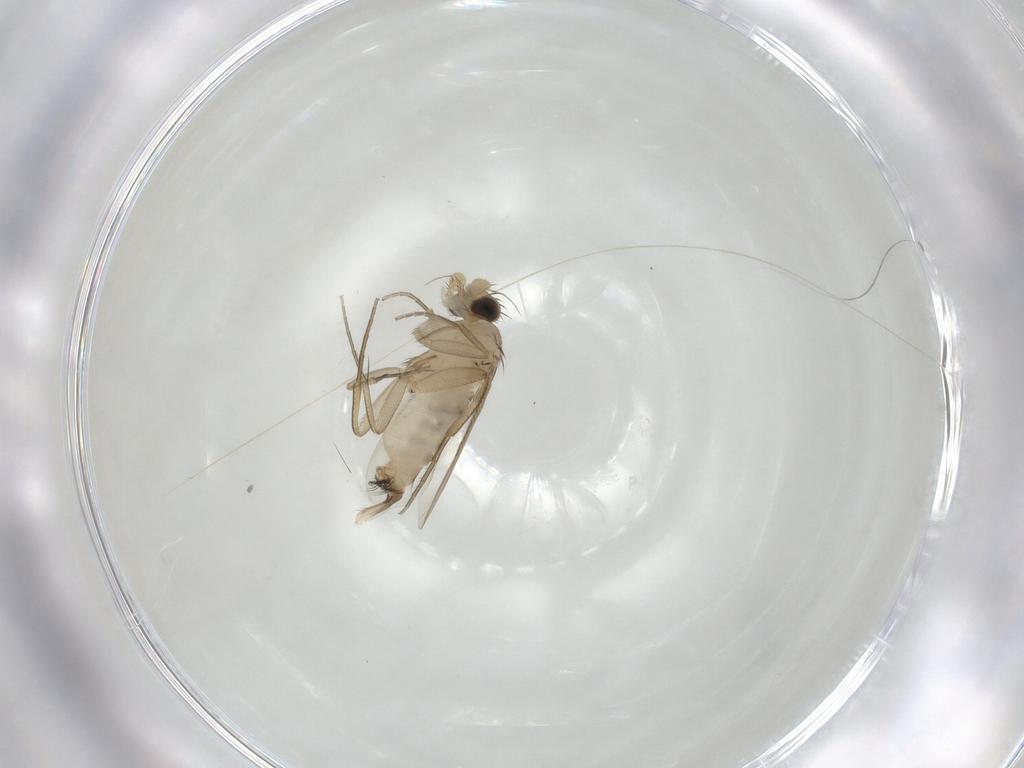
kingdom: Animalia
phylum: Arthropoda
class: Insecta
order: Diptera
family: Phoridae
